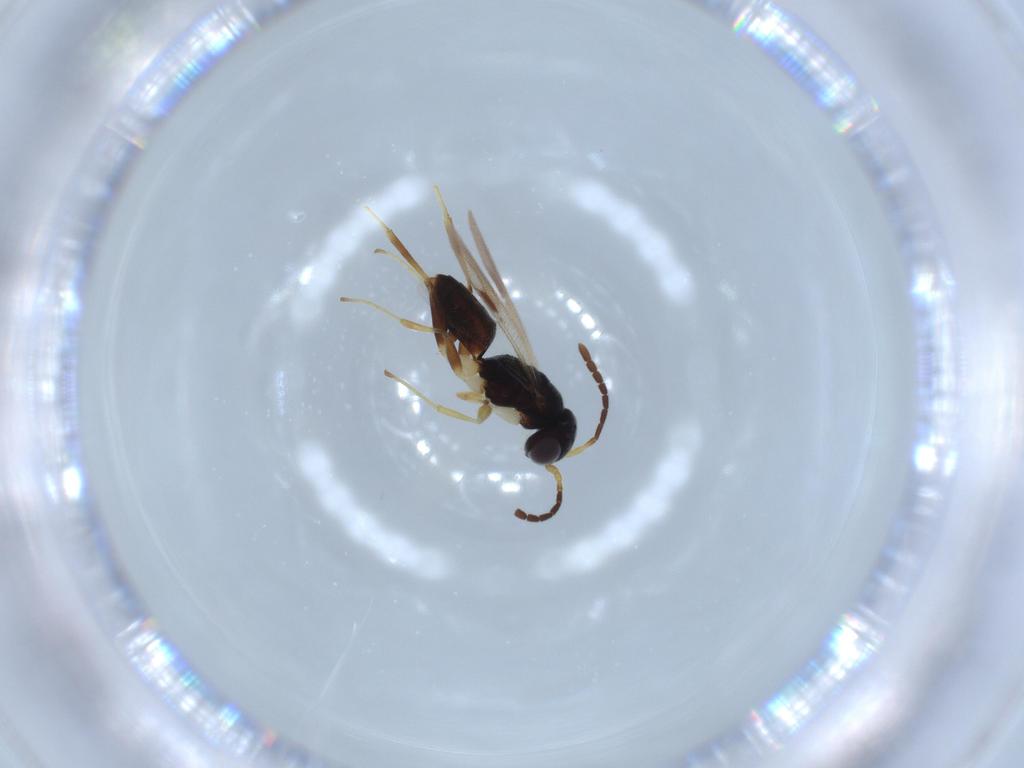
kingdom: Animalia
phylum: Arthropoda
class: Insecta
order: Hymenoptera
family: Dryinidae
